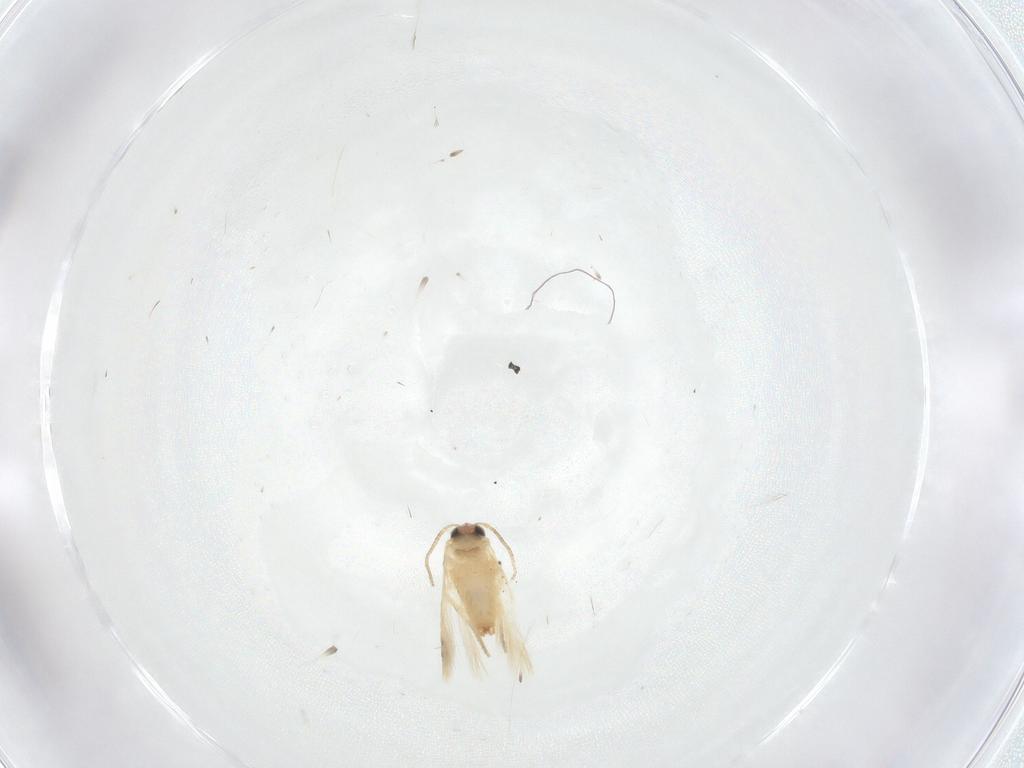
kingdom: Animalia
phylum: Arthropoda
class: Insecta
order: Lepidoptera
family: Crambidae
